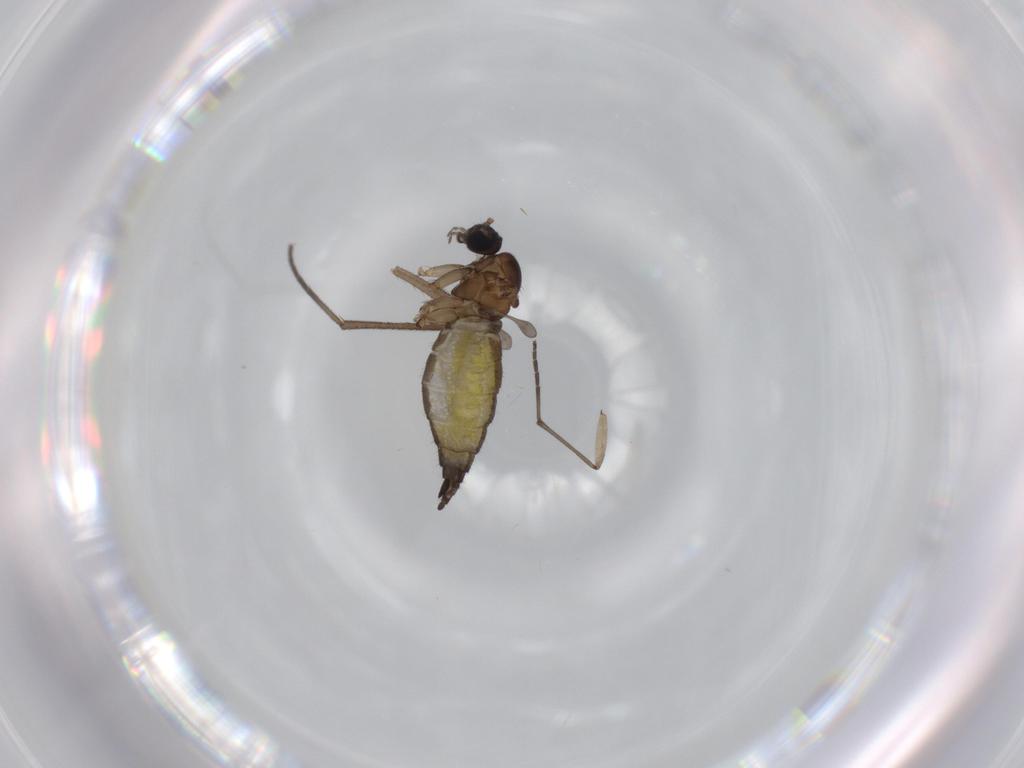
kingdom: Animalia
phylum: Arthropoda
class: Insecta
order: Diptera
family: Sciaridae
